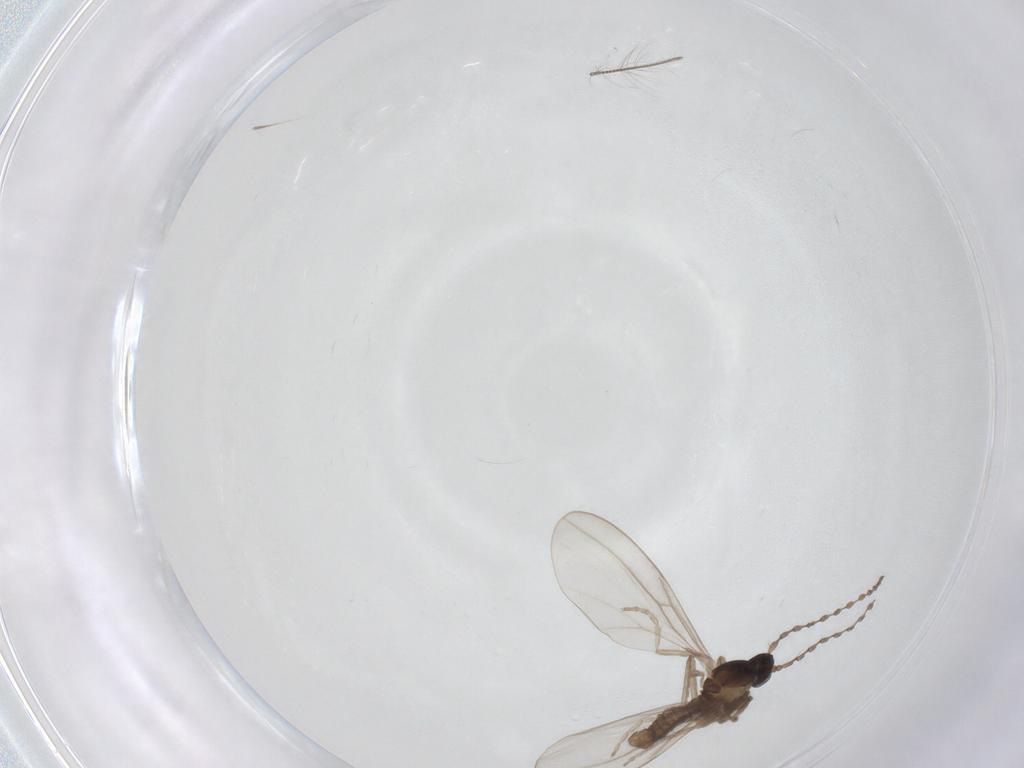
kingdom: Animalia
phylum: Arthropoda
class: Insecta
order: Diptera
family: Cecidomyiidae
